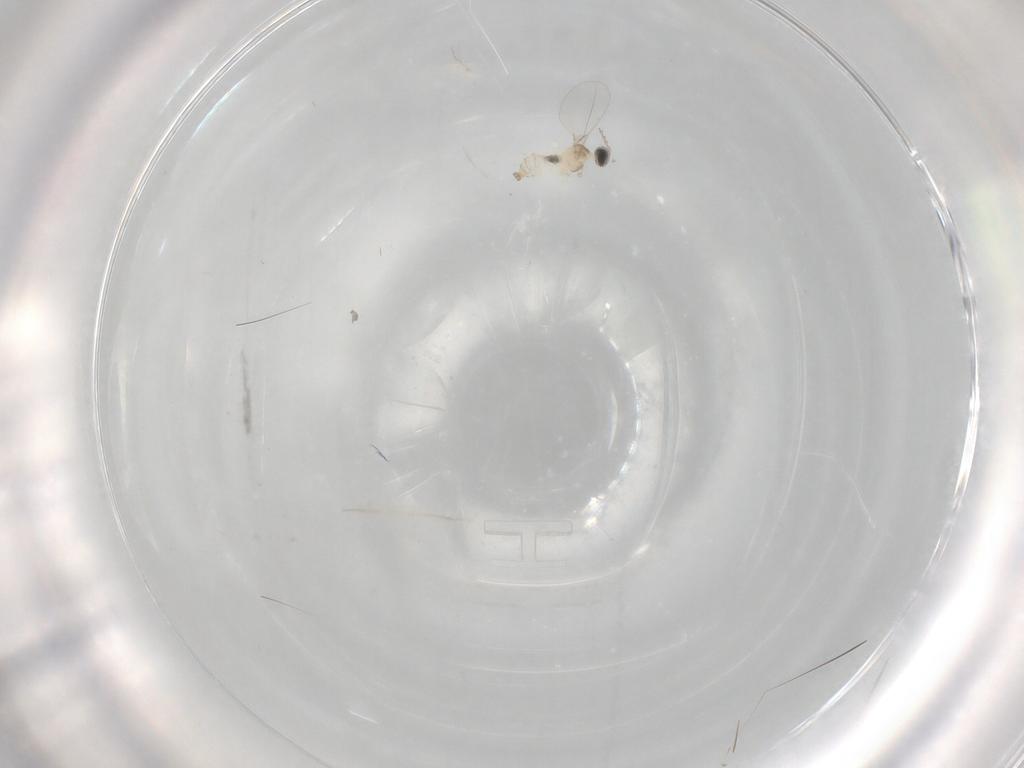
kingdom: Animalia
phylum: Arthropoda
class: Insecta
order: Diptera
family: Cecidomyiidae
